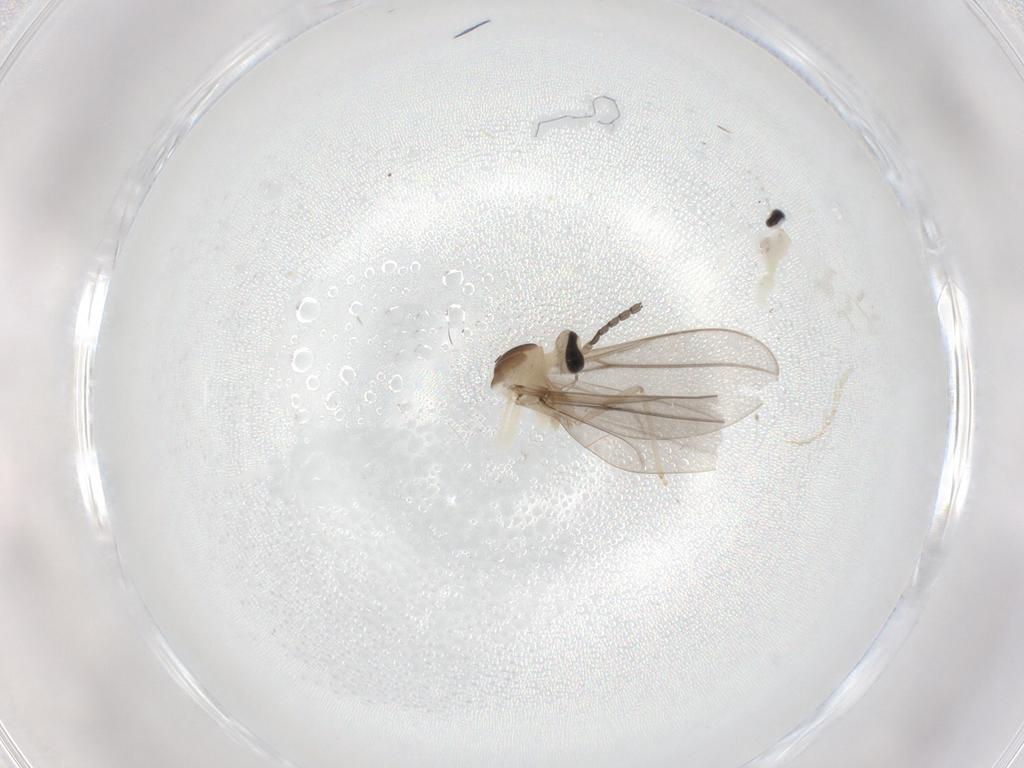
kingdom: Animalia
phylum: Arthropoda
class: Insecta
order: Diptera
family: Cecidomyiidae
